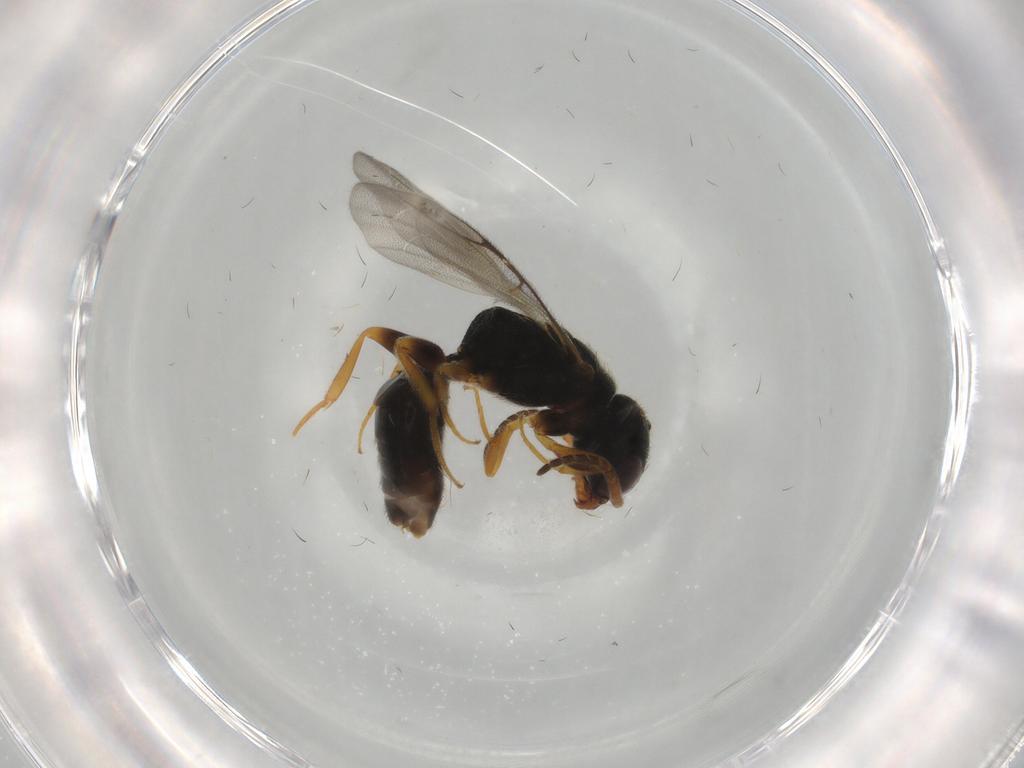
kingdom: Animalia
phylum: Arthropoda
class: Insecta
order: Hymenoptera
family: Bethylidae
